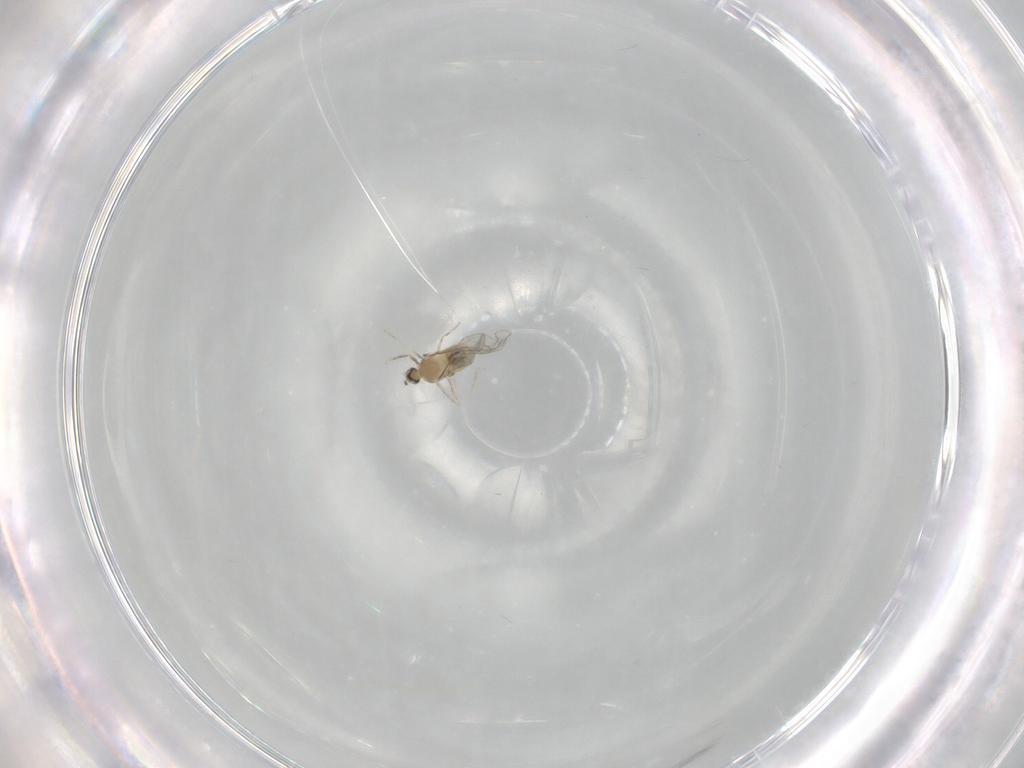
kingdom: Animalia
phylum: Arthropoda
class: Insecta
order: Diptera
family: Cecidomyiidae
